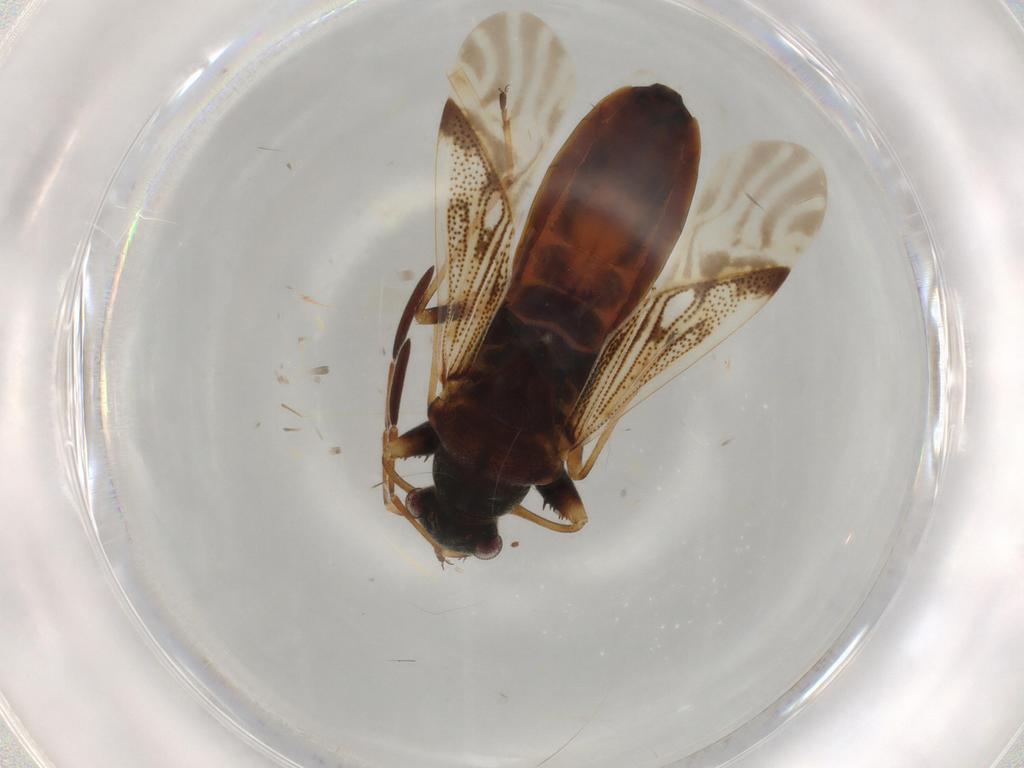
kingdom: Animalia
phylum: Arthropoda
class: Insecta
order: Hemiptera
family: Rhyparochromidae
